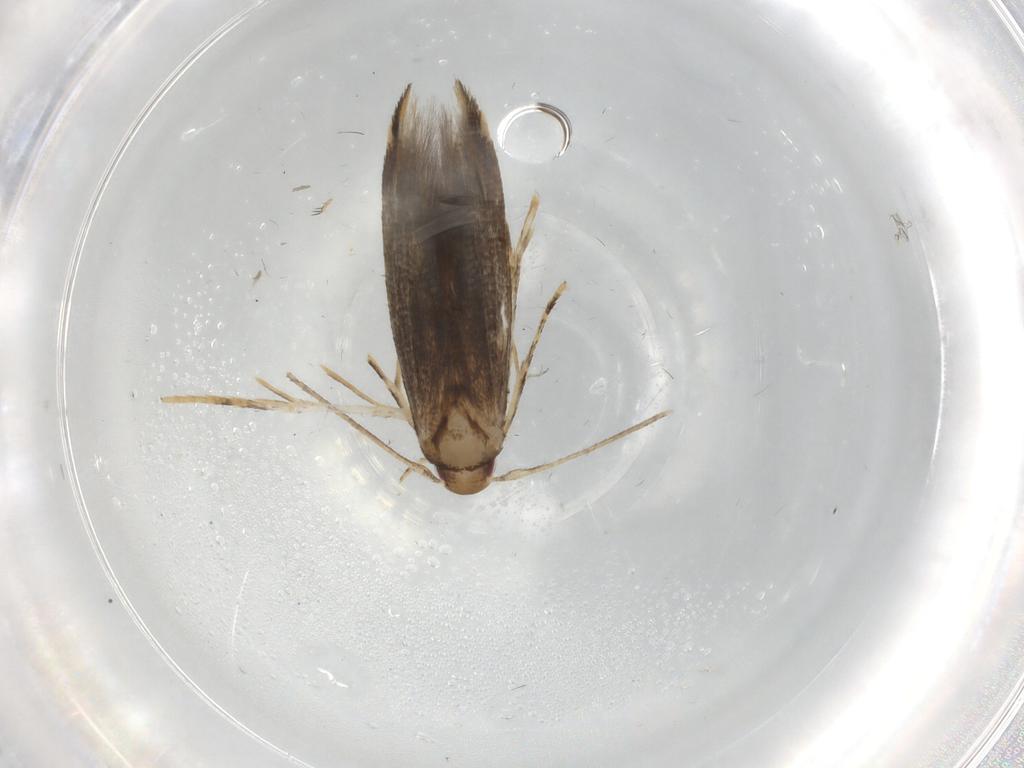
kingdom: Animalia
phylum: Arthropoda
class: Insecta
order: Lepidoptera
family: Momphidae
